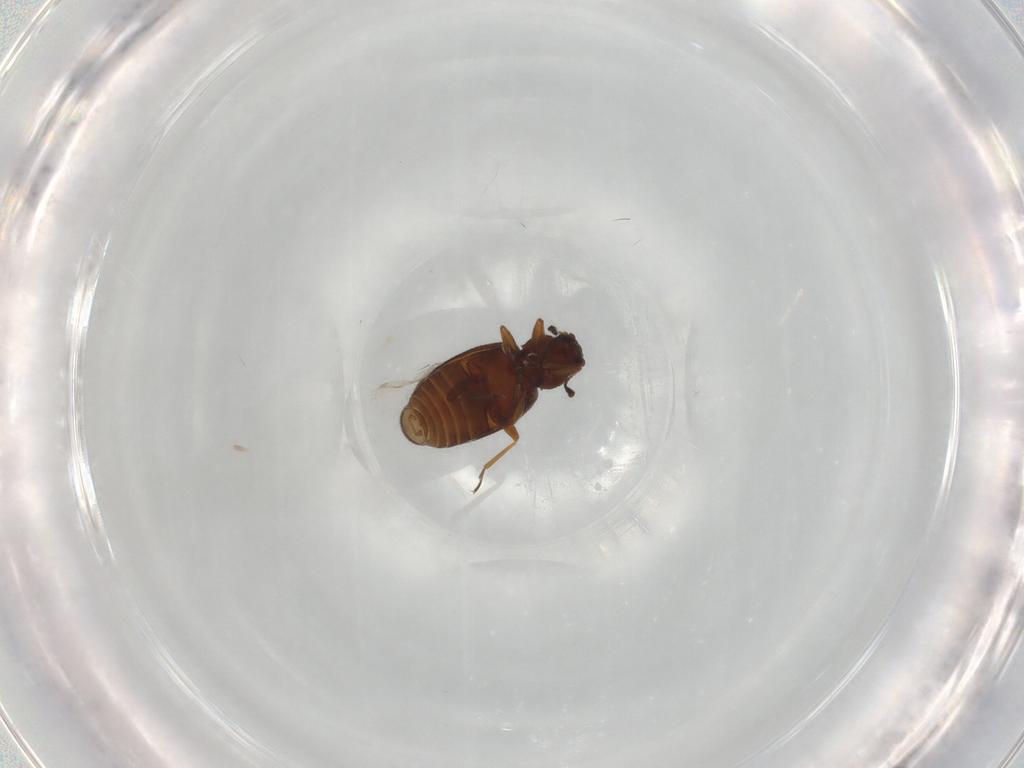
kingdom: Animalia
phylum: Arthropoda
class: Insecta
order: Coleoptera
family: Latridiidae
